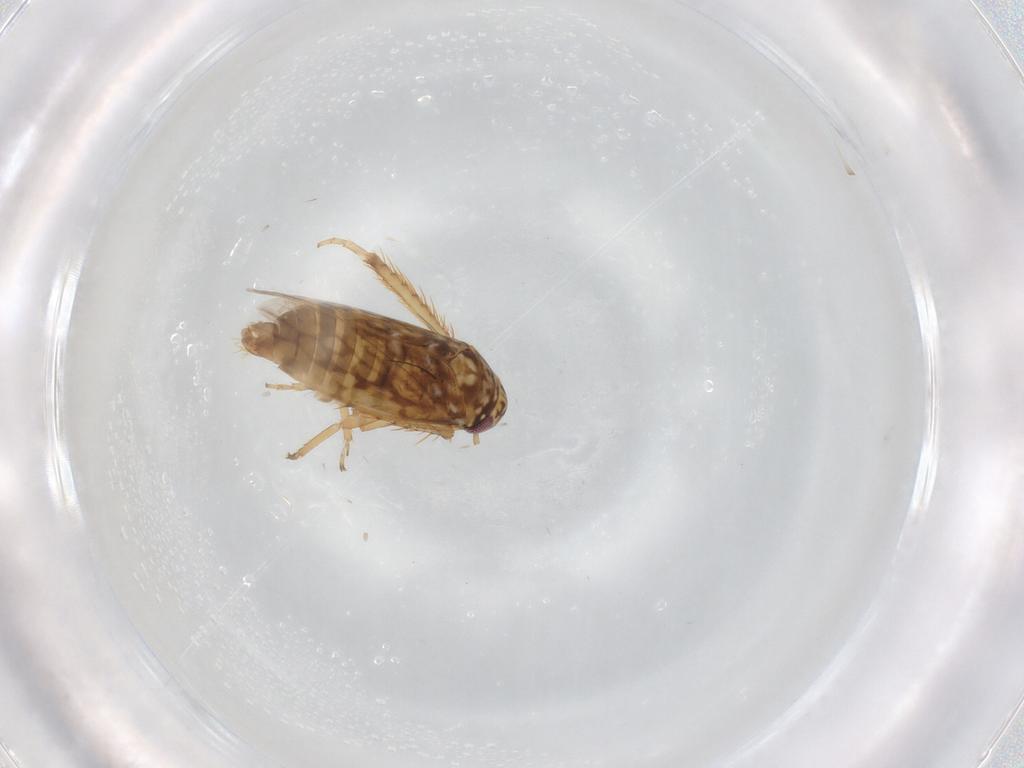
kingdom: Animalia
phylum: Arthropoda
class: Insecta
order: Hemiptera
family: Cicadellidae
